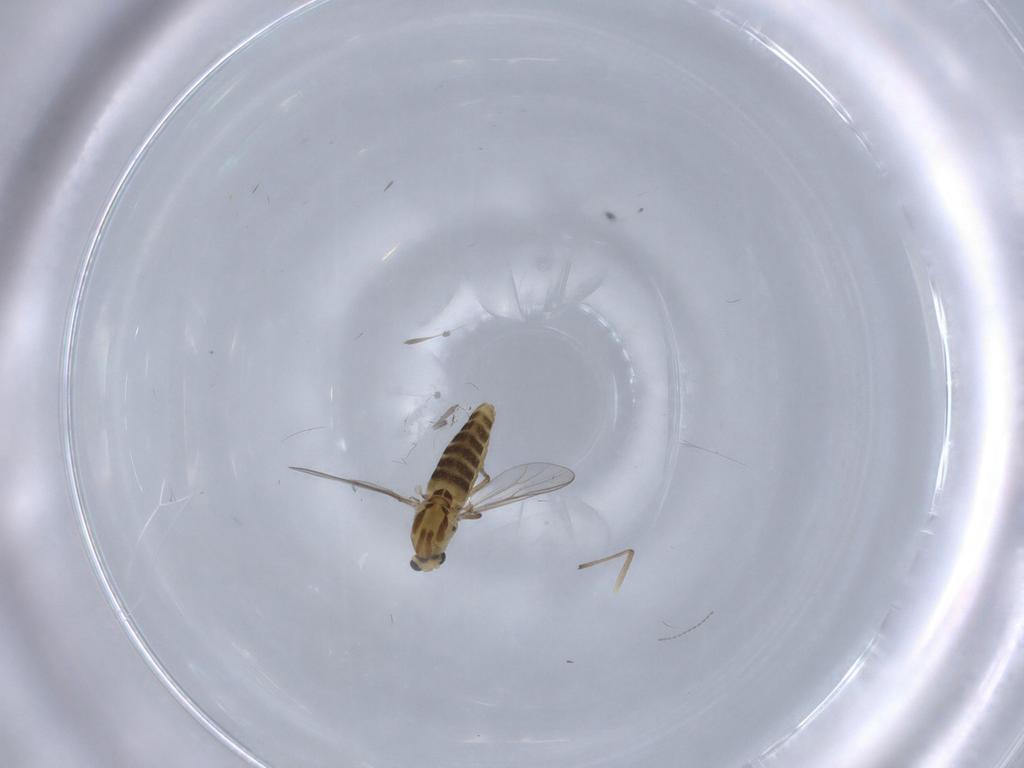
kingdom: Animalia
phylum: Arthropoda
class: Insecta
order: Diptera
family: Chironomidae
